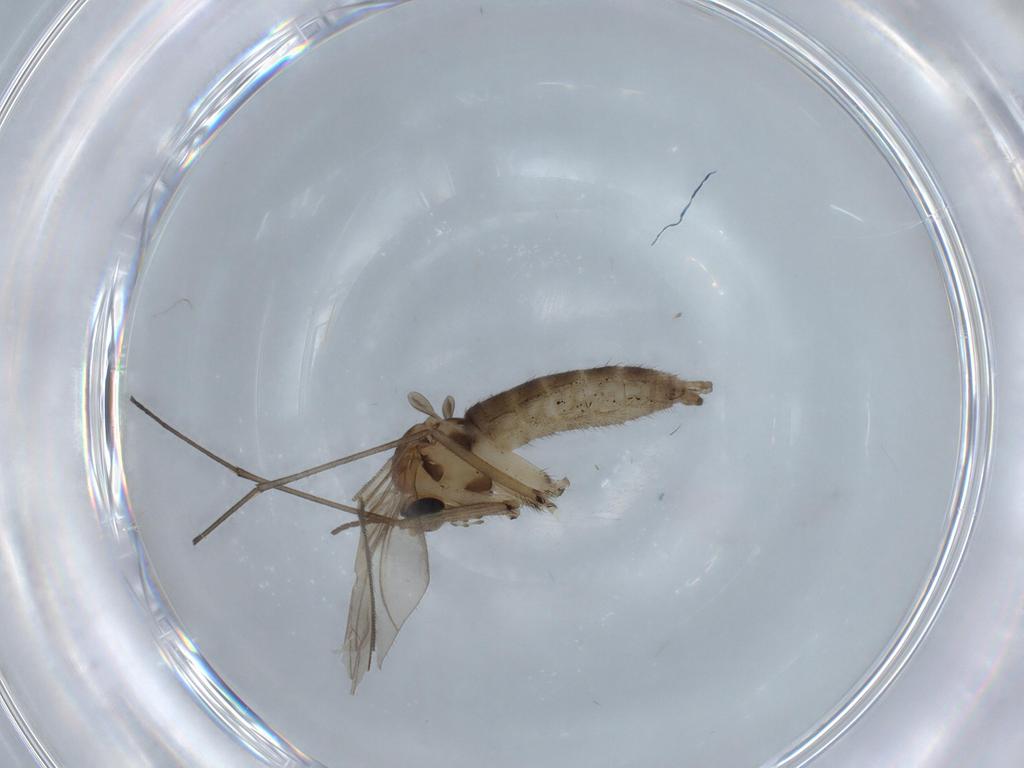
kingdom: Animalia
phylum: Arthropoda
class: Insecta
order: Diptera
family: Sciaridae
